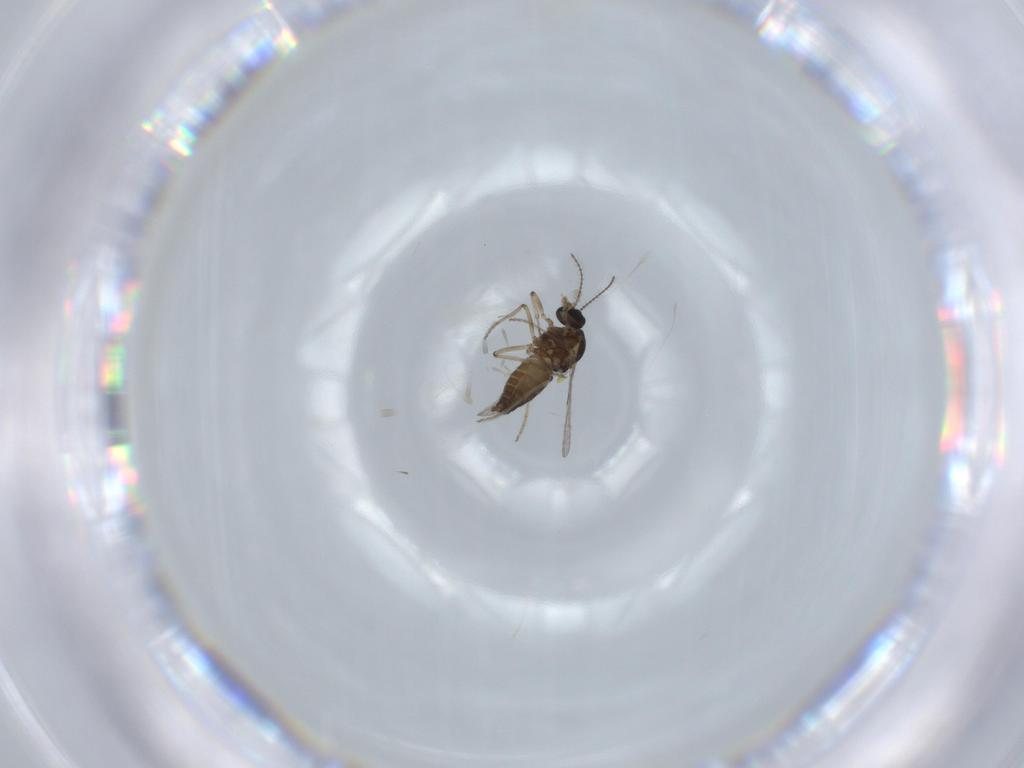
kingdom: Animalia
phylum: Arthropoda
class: Insecta
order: Diptera
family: Ceratopogonidae
